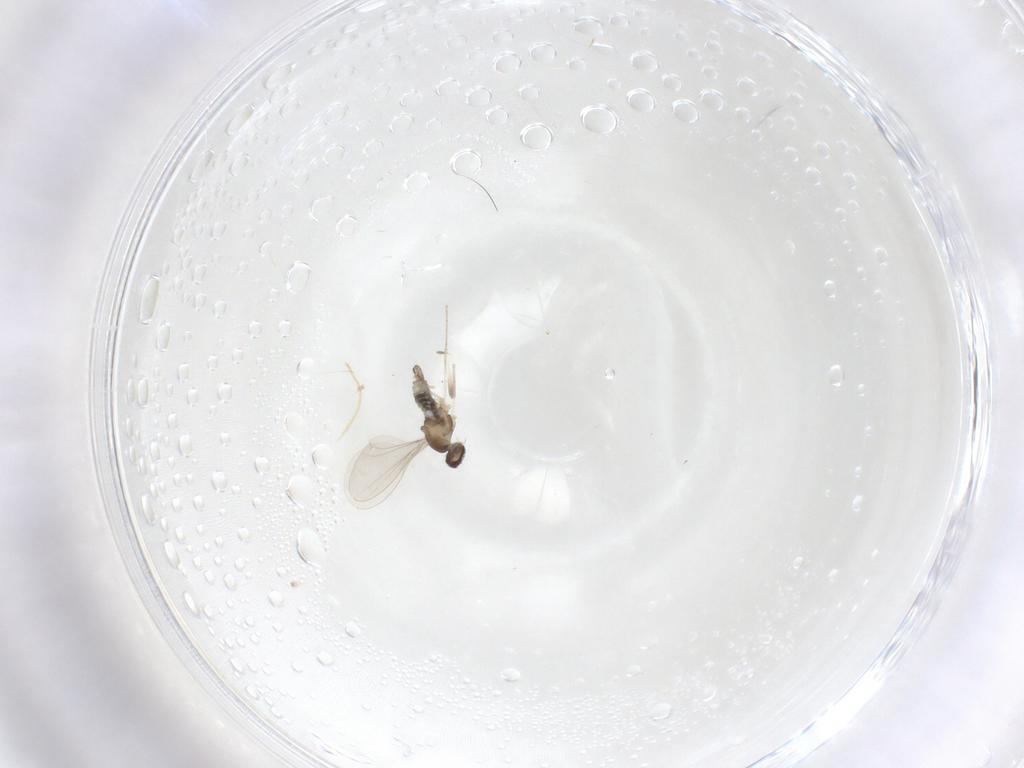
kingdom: Animalia
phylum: Arthropoda
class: Insecta
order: Diptera
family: Cecidomyiidae
